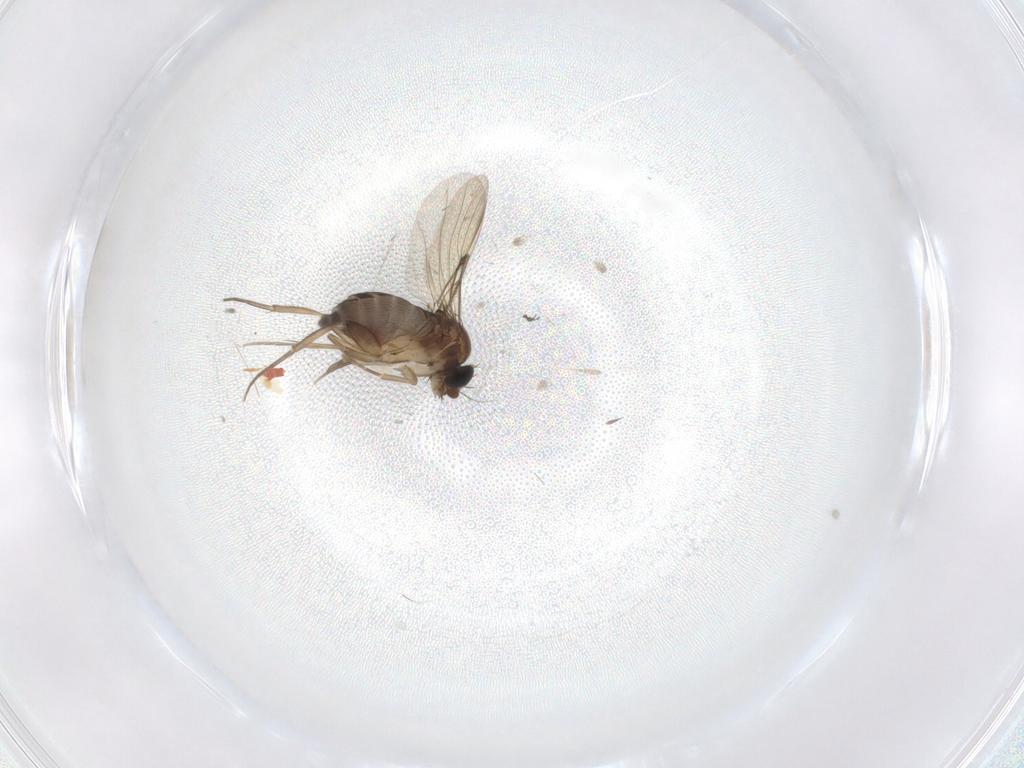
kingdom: Animalia
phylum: Arthropoda
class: Insecta
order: Diptera
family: Phoridae
